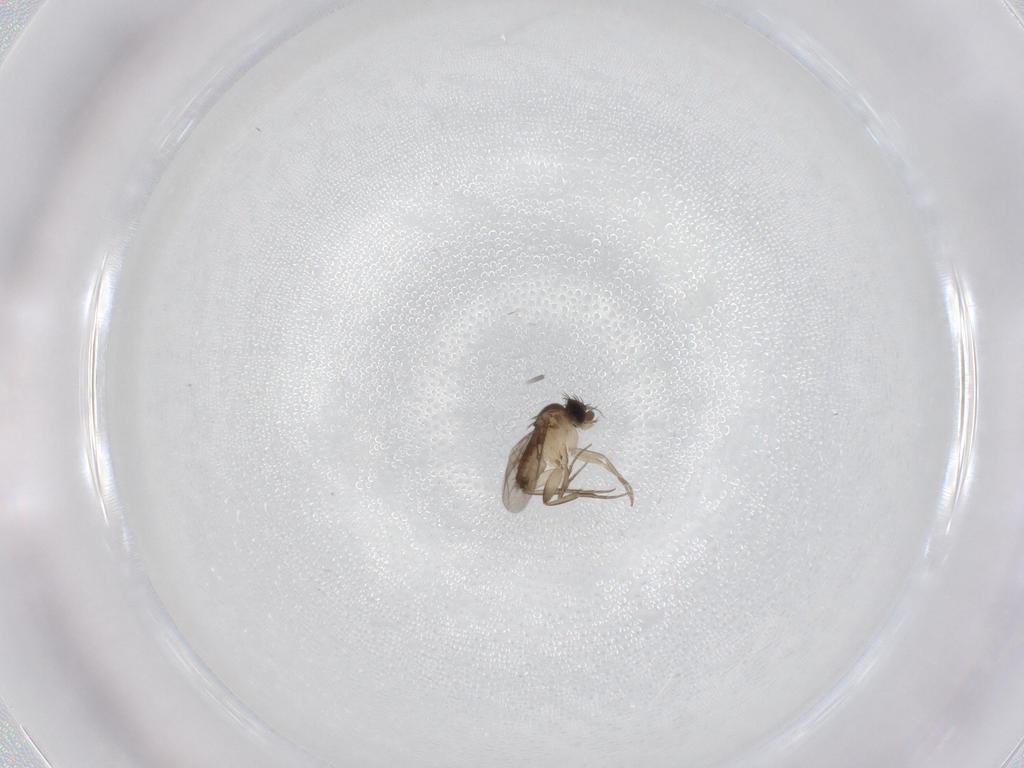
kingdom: Animalia
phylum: Arthropoda
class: Insecta
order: Diptera
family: Phoridae
